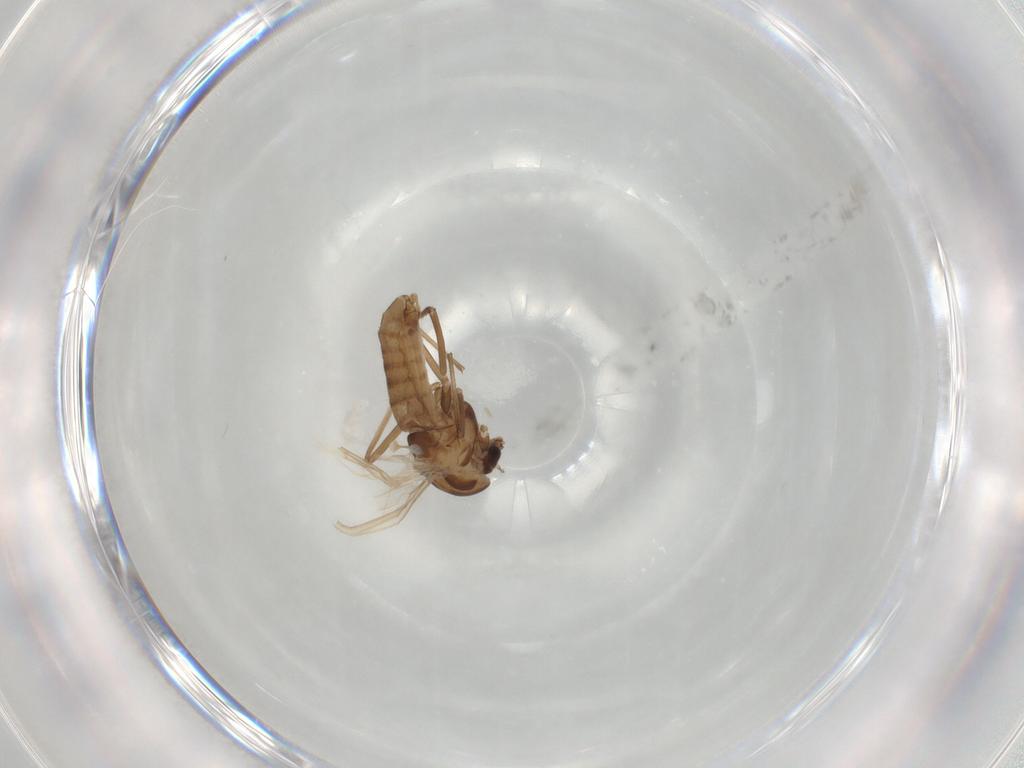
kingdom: Animalia
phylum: Arthropoda
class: Insecta
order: Diptera
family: Chironomidae
